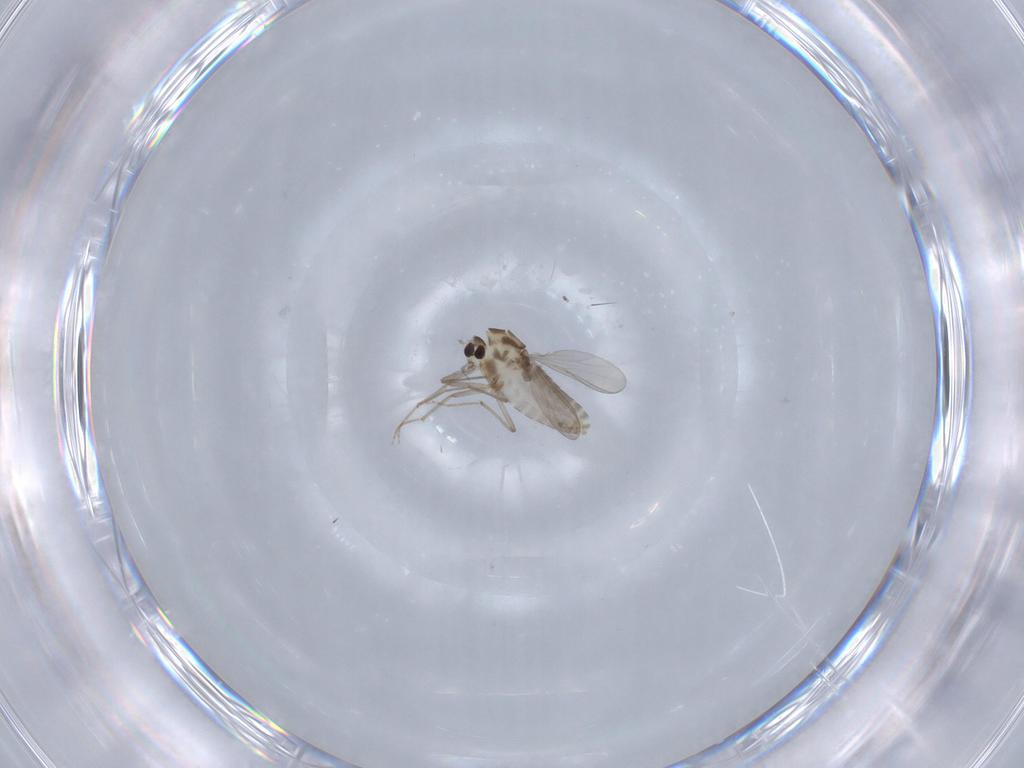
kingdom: Animalia
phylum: Arthropoda
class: Insecta
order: Diptera
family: Chironomidae
